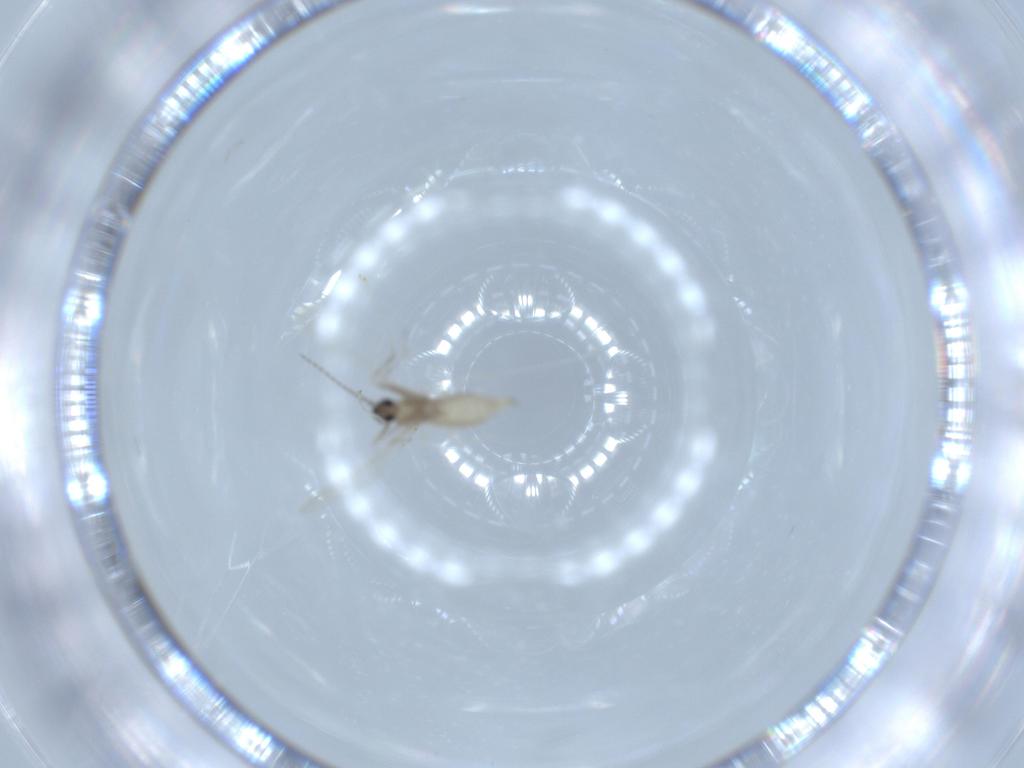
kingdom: Animalia
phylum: Arthropoda
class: Insecta
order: Diptera
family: Cecidomyiidae
